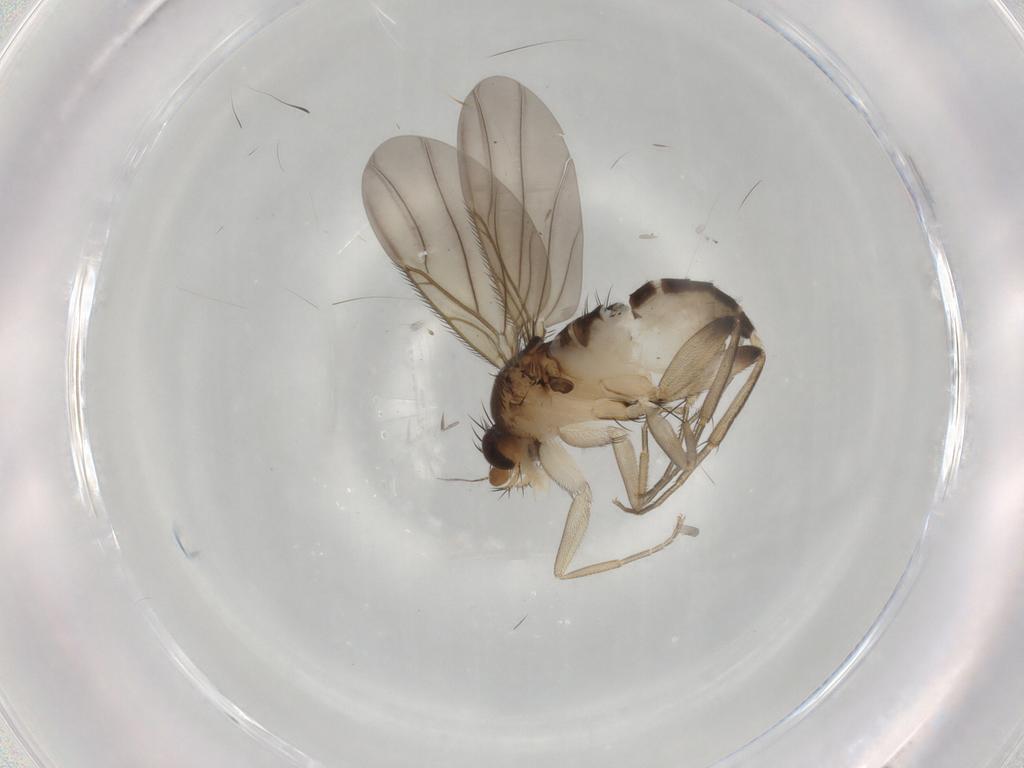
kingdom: Animalia
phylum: Arthropoda
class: Insecta
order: Diptera
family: Phoridae
